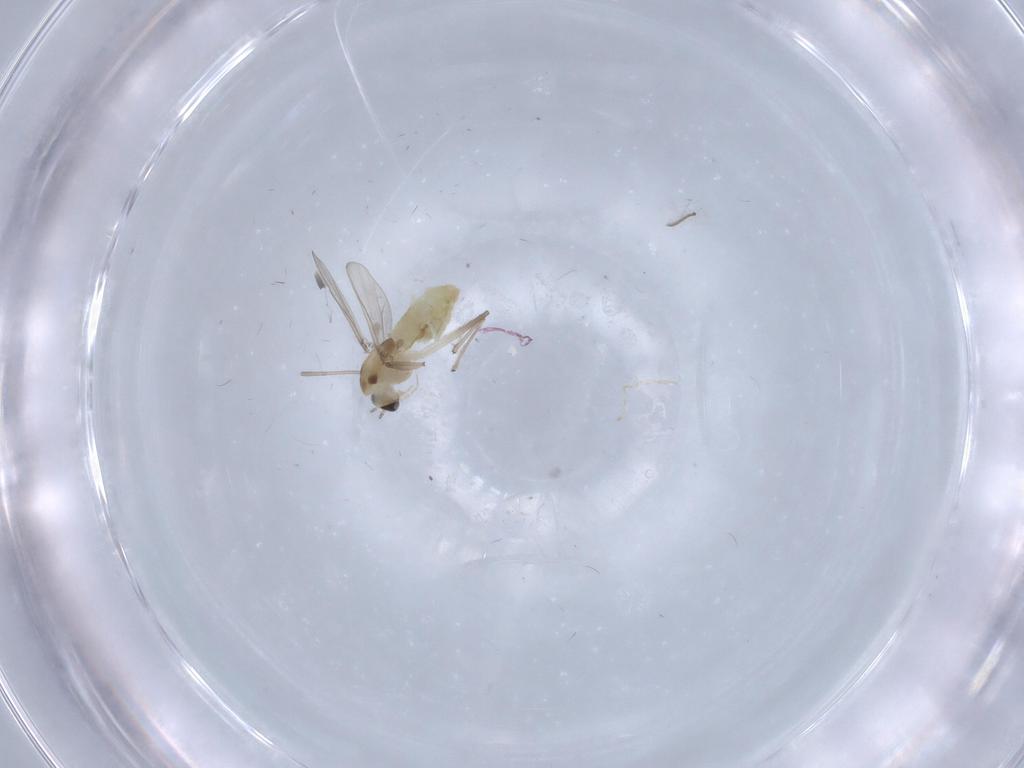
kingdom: Animalia
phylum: Arthropoda
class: Insecta
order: Diptera
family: Chironomidae
